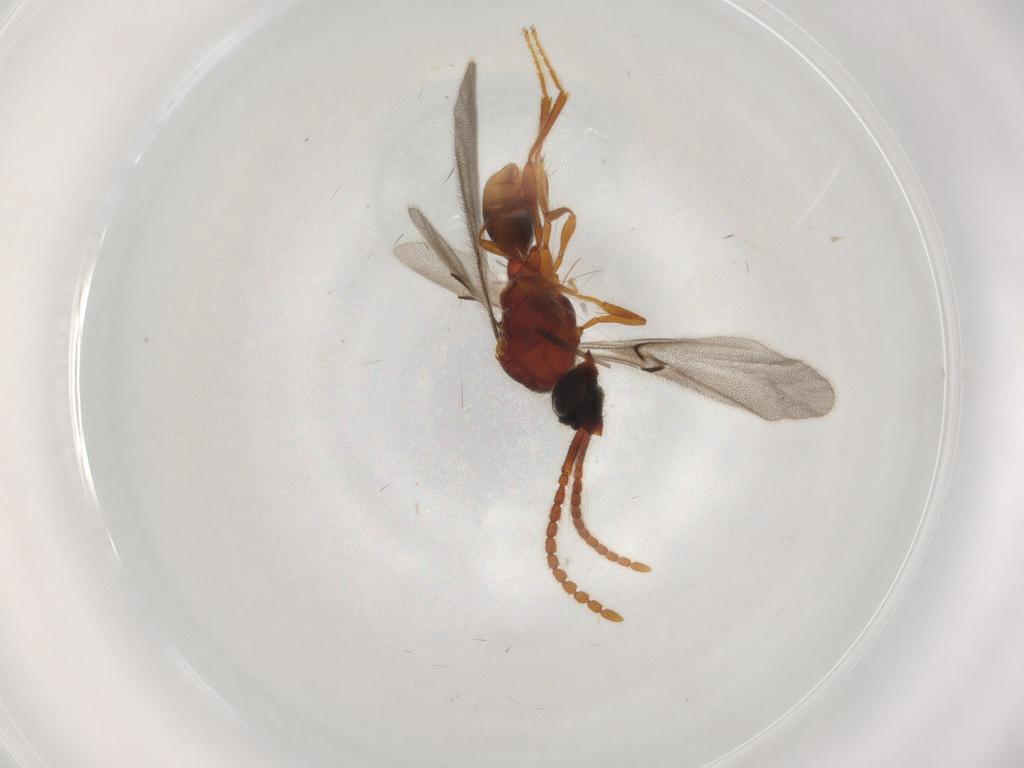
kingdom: Animalia
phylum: Arthropoda
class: Insecta
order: Hymenoptera
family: Diapriidae
